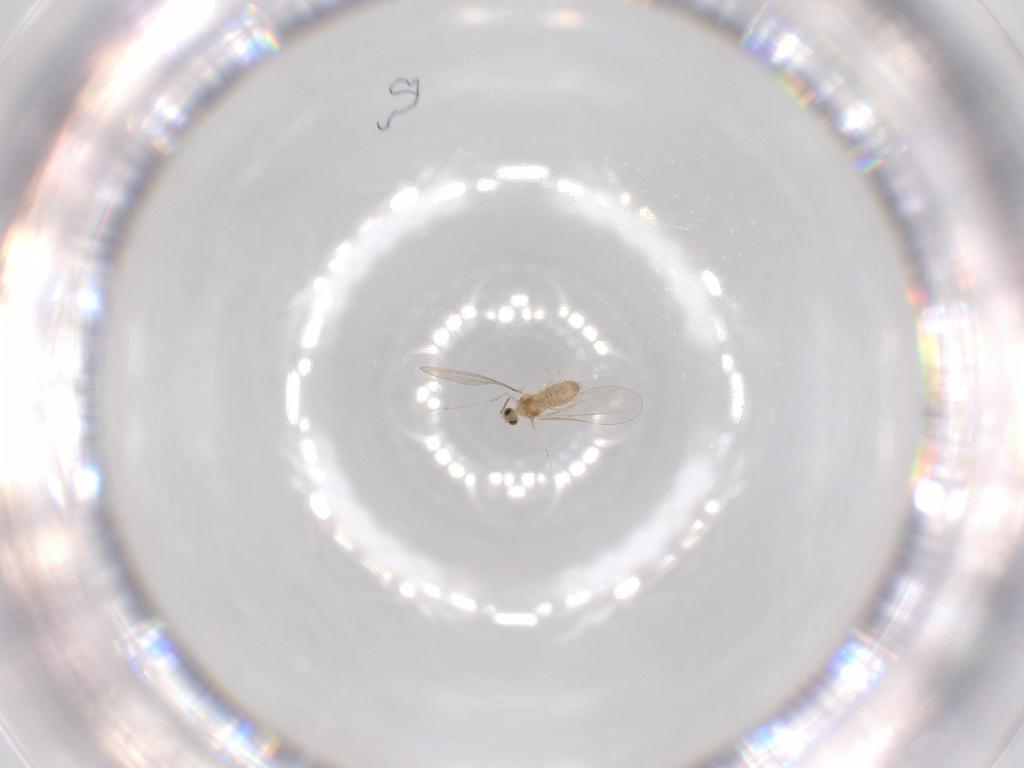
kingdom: Animalia
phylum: Arthropoda
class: Insecta
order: Diptera
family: Cecidomyiidae
